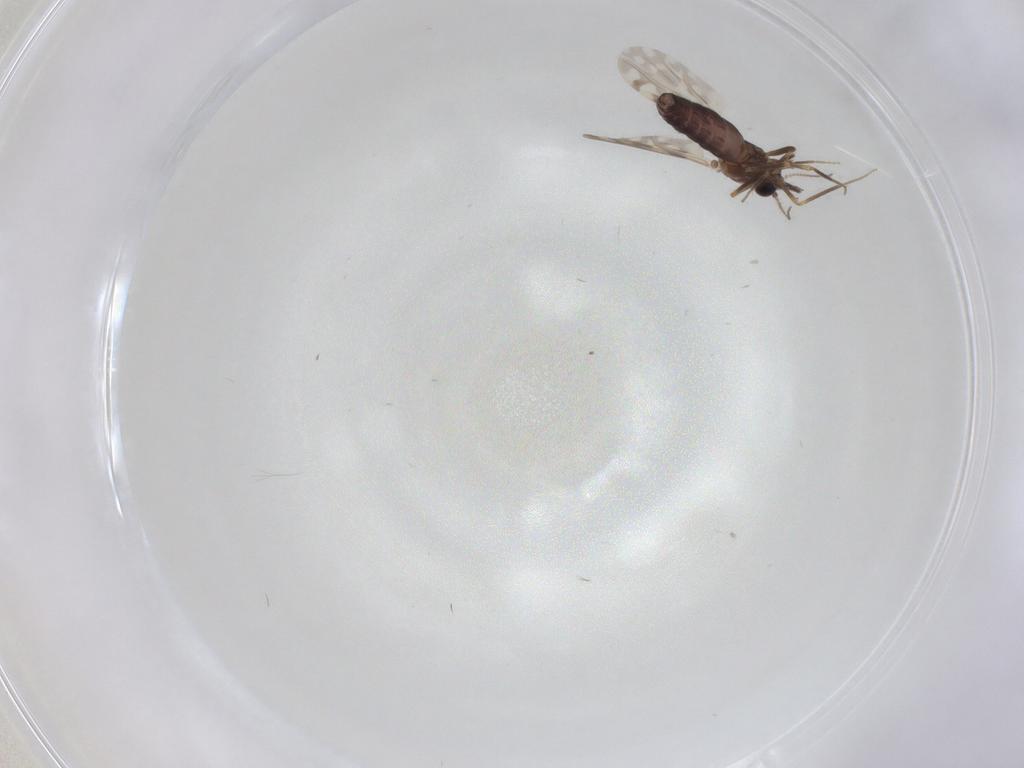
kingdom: Animalia
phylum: Arthropoda
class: Insecta
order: Diptera
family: Ceratopogonidae
